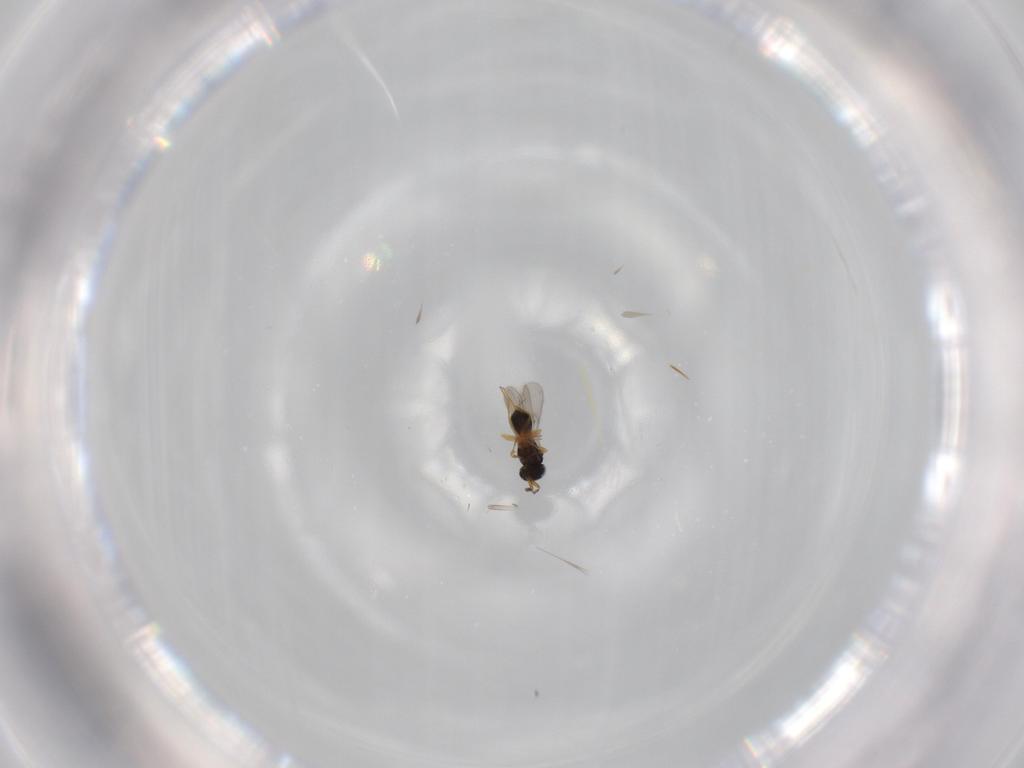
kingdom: Animalia
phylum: Arthropoda
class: Insecta
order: Hymenoptera
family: Scelionidae
